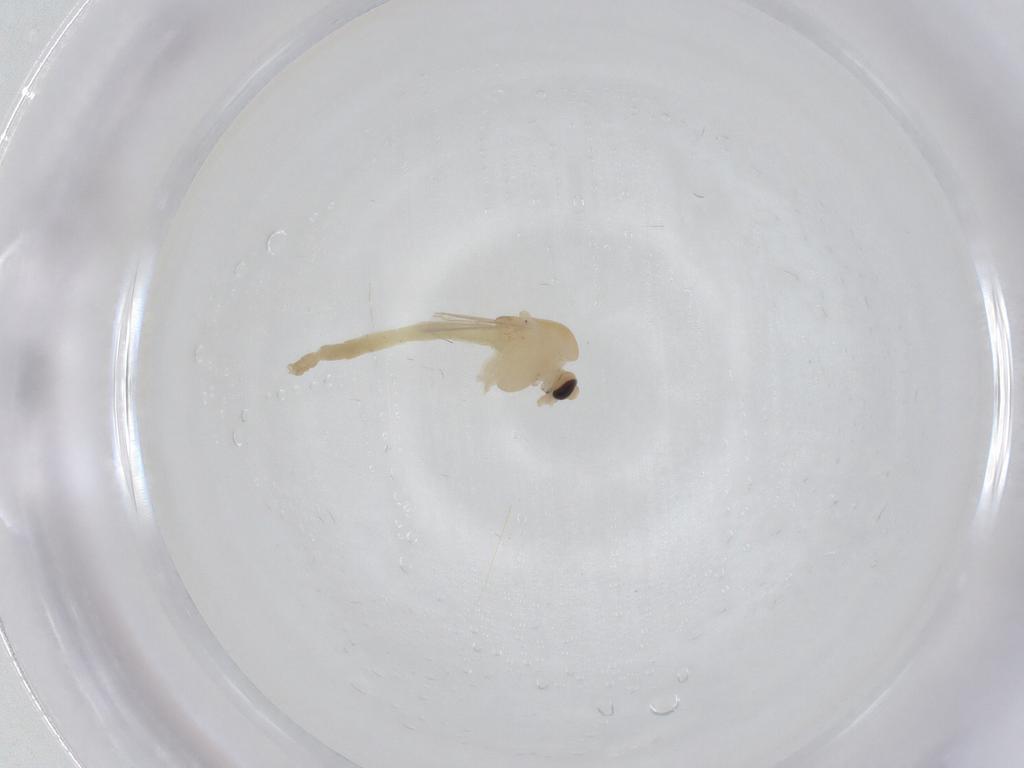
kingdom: Animalia
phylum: Arthropoda
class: Insecta
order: Diptera
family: Chironomidae
